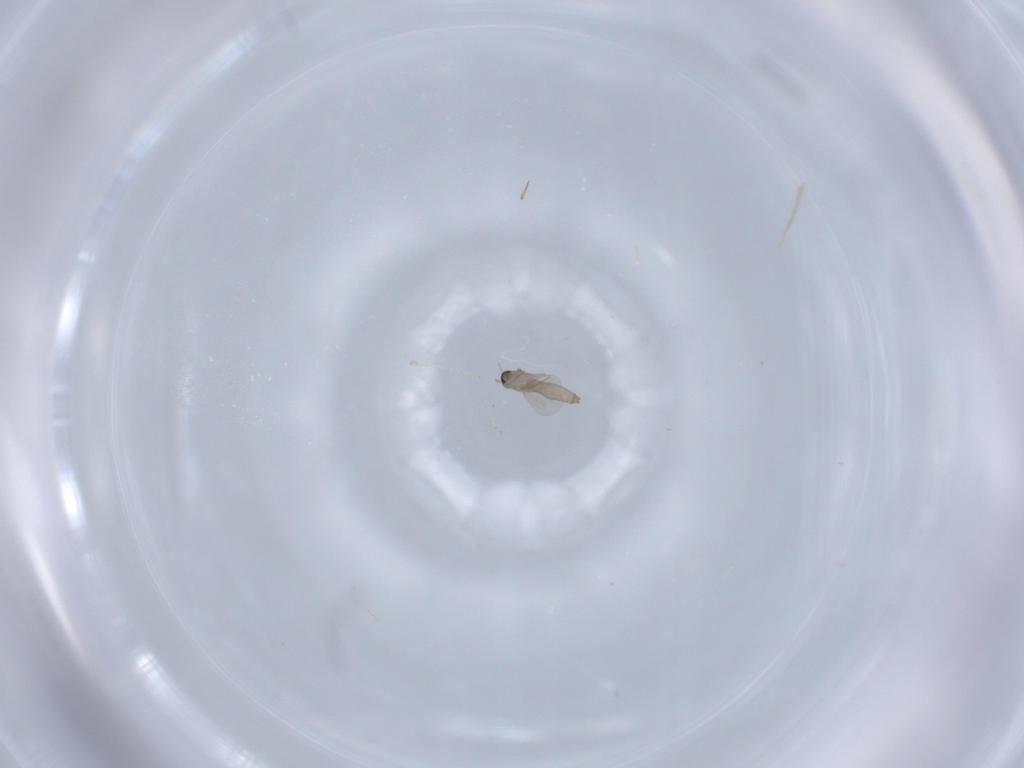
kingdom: Animalia
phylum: Arthropoda
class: Insecta
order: Diptera
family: Cecidomyiidae
